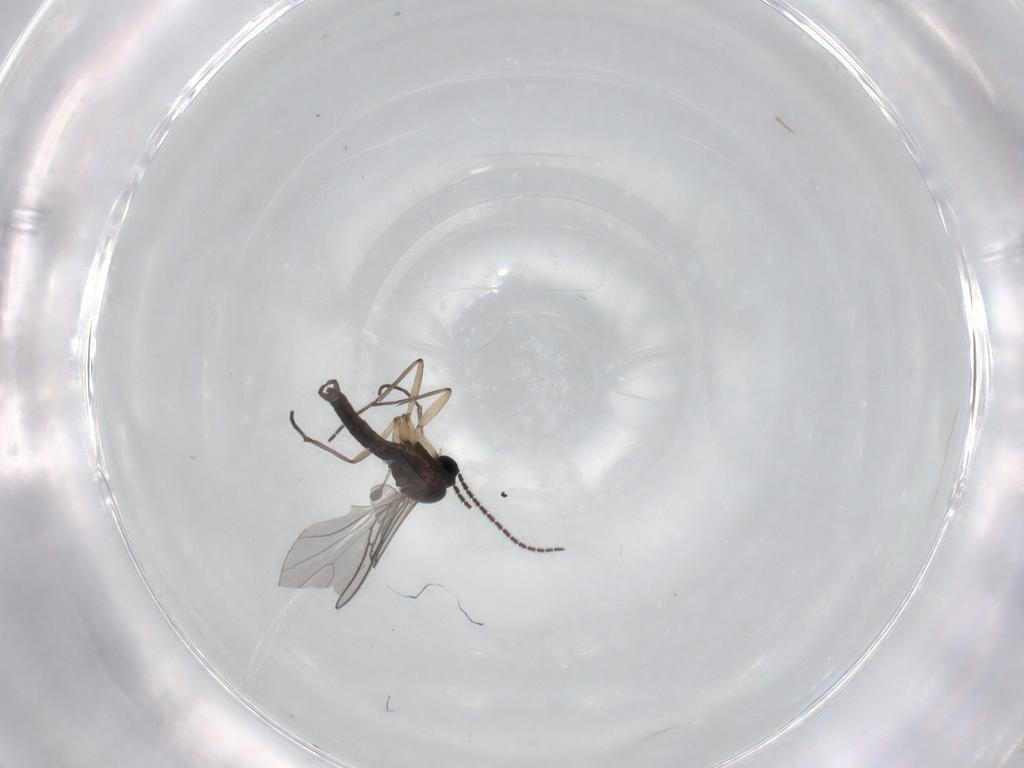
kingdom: Animalia
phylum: Arthropoda
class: Insecta
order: Diptera
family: Sciaridae
